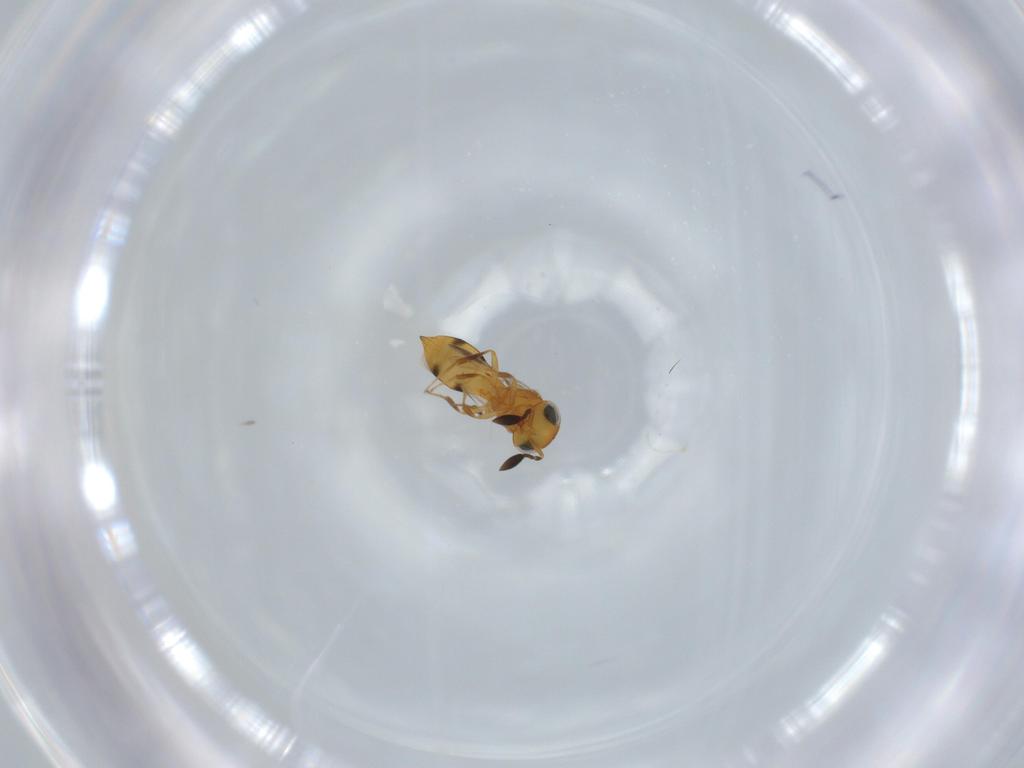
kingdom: Animalia
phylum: Arthropoda
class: Insecta
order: Hymenoptera
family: Scelionidae
